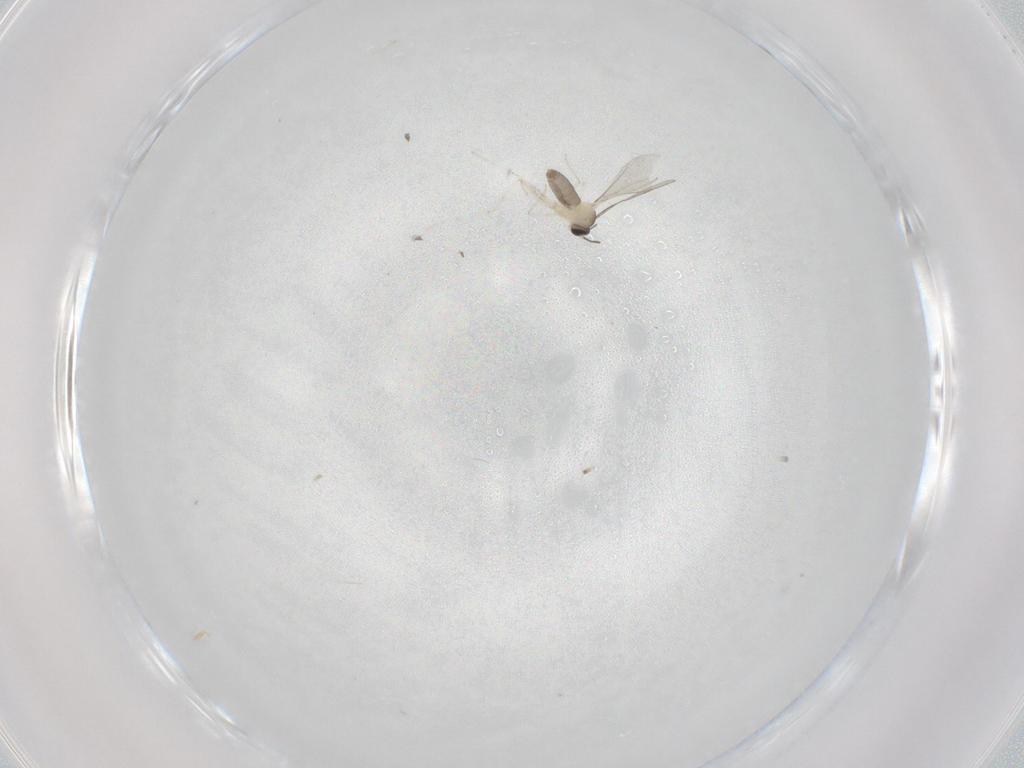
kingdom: Animalia
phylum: Arthropoda
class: Insecta
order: Diptera
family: Cecidomyiidae
